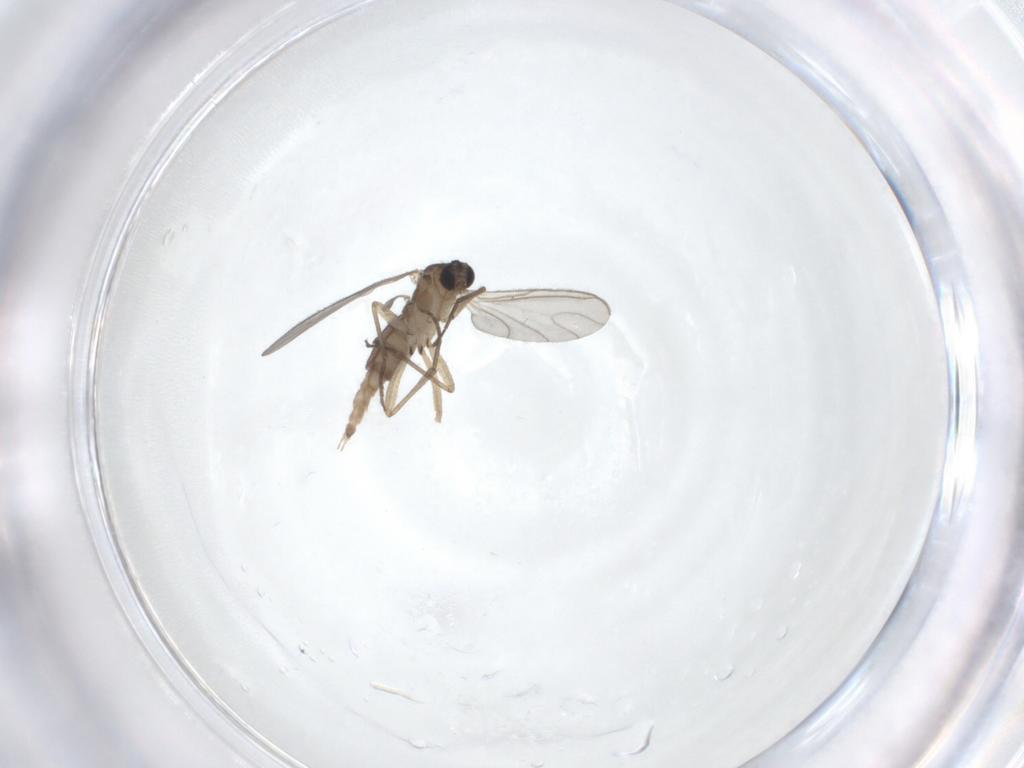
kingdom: Animalia
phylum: Arthropoda
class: Insecta
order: Diptera
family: Sciaridae
